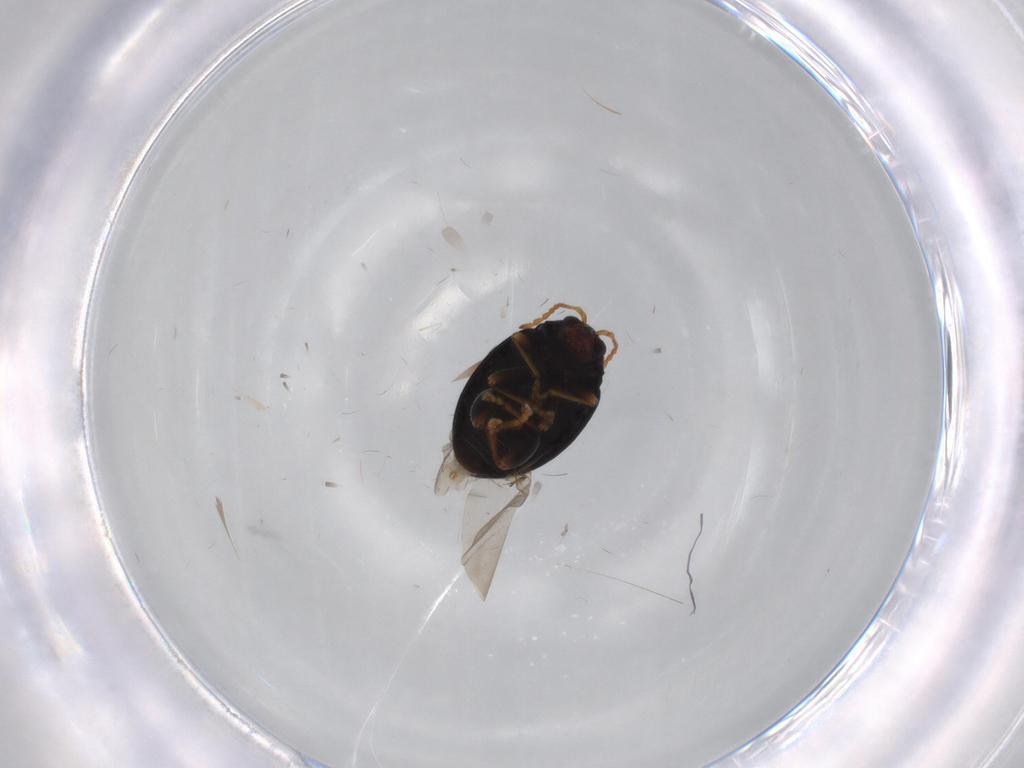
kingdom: Animalia
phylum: Arthropoda
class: Insecta
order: Coleoptera
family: Chrysomelidae
